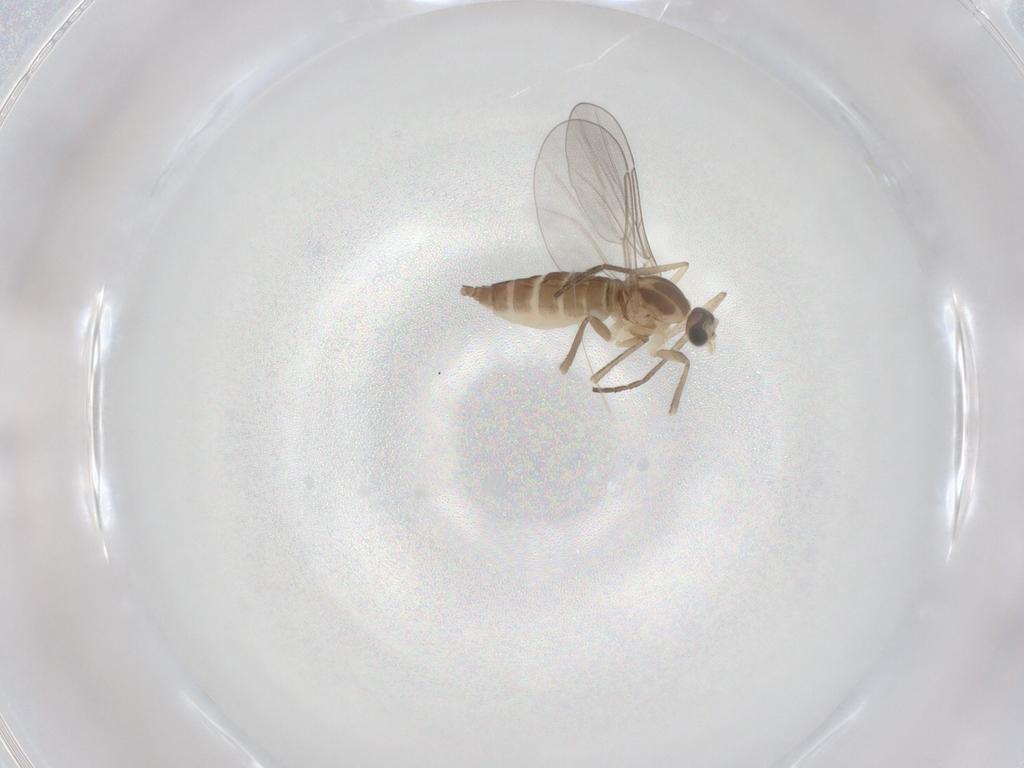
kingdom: Animalia
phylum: Arthropoda
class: Insecta
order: Diptera
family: Cecidomyiidae
